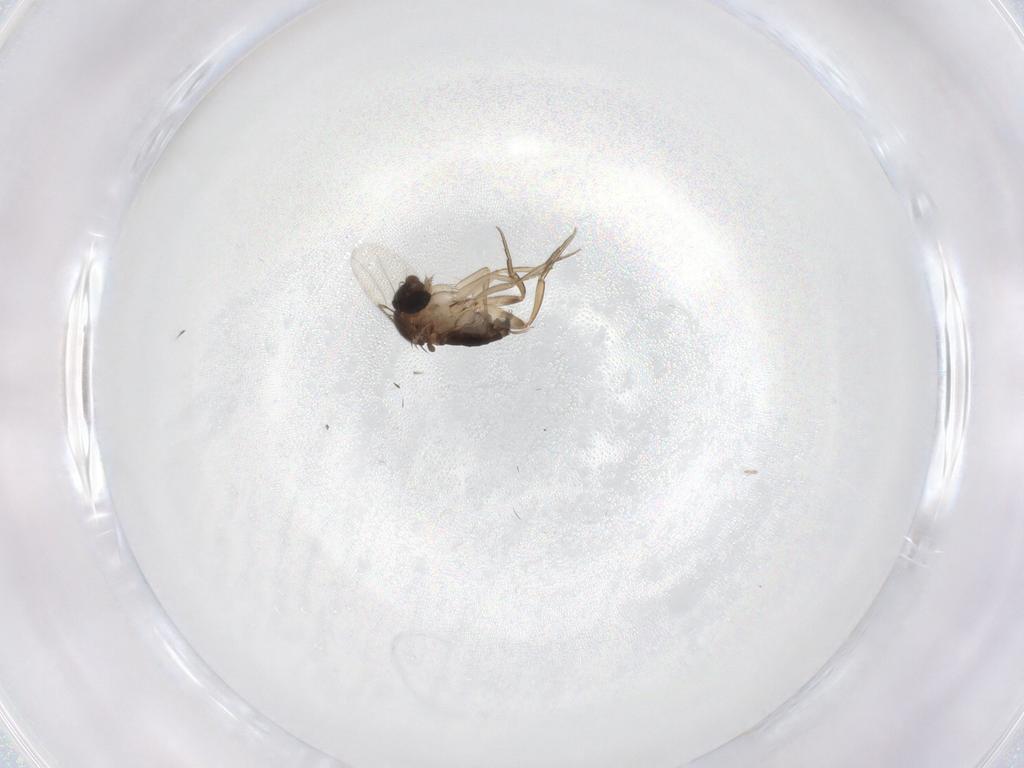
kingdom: Animalia
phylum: Arthropoda
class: Insecta
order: Diptera
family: Phoridae
